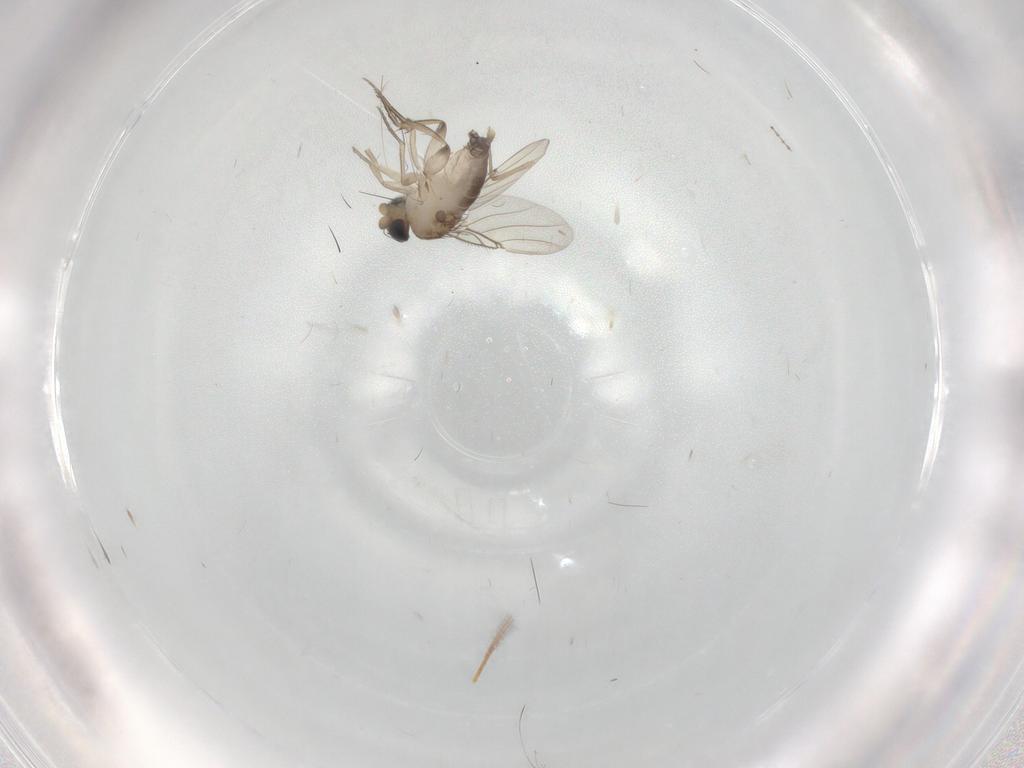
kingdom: Animalia
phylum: Arthropoda
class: Insecta
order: Diptera
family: Phoridae
